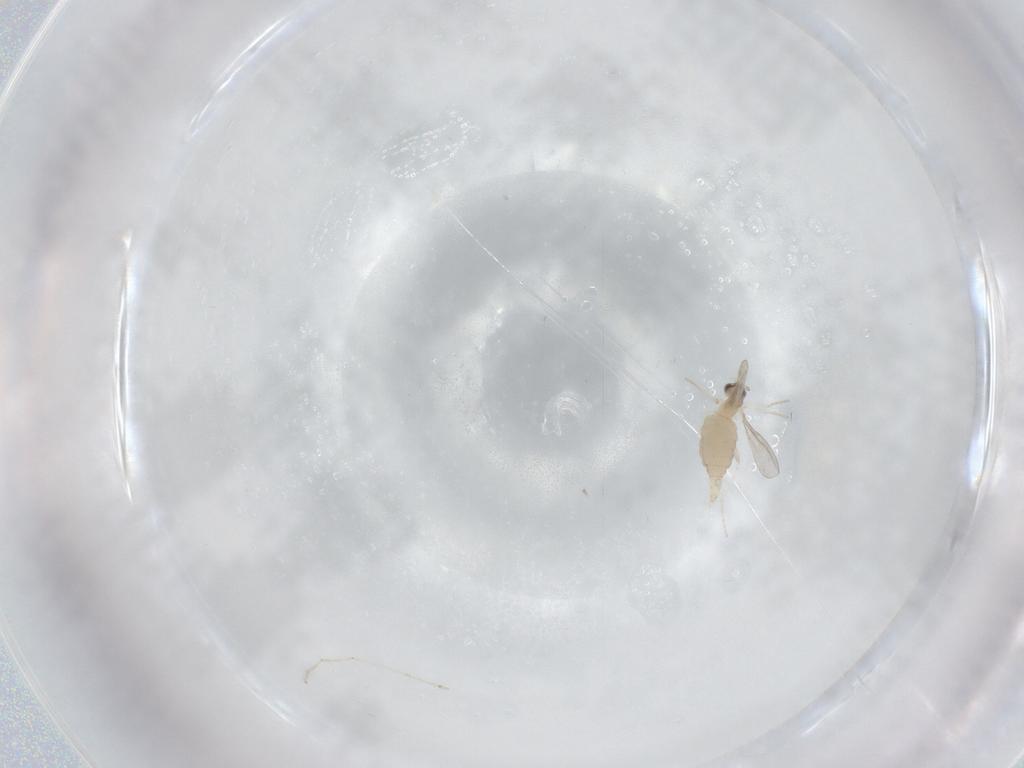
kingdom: Animalia
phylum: Arthropoda
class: Insecta
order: Diptera
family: Cecidomyiidae
